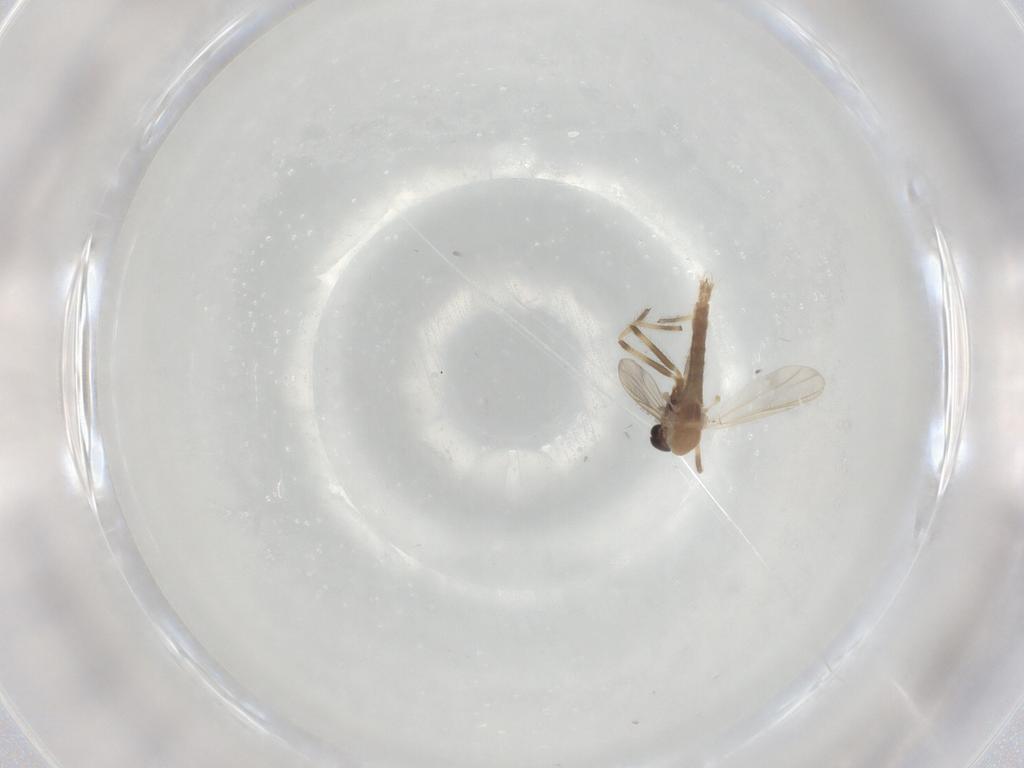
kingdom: Animalia
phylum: Arthropoda
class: Insecta
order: Diptera
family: Chironomidae
